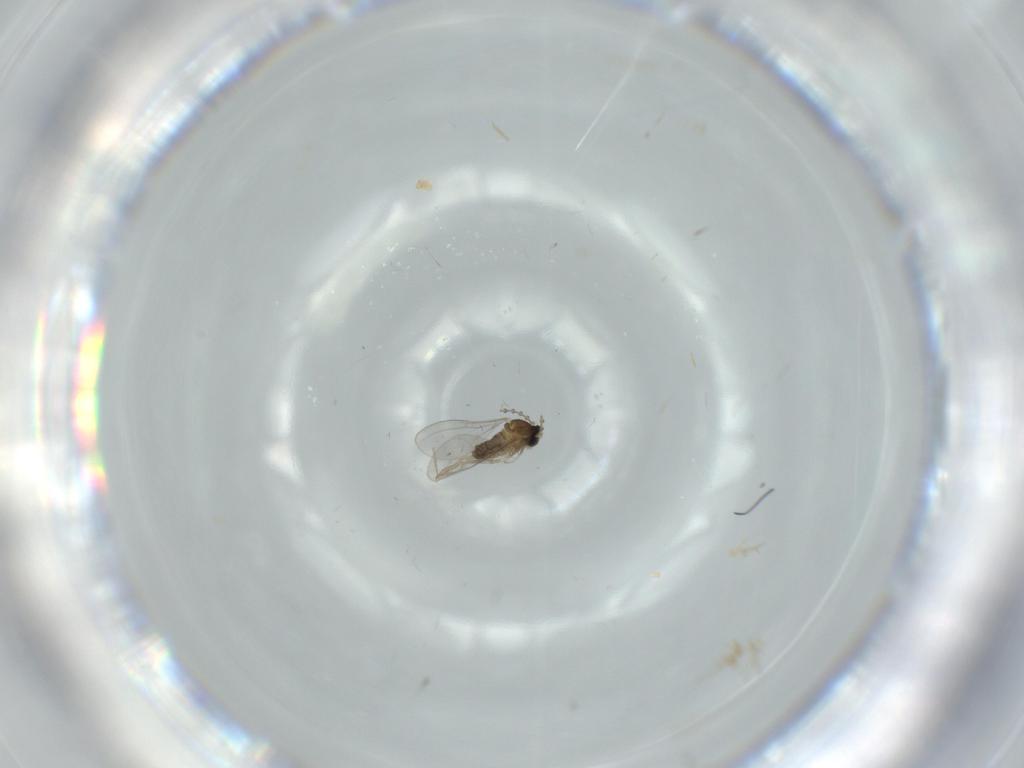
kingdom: Animalia
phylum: Arthropoda
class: Insecta
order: Diptera
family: Cecidomyiidae
